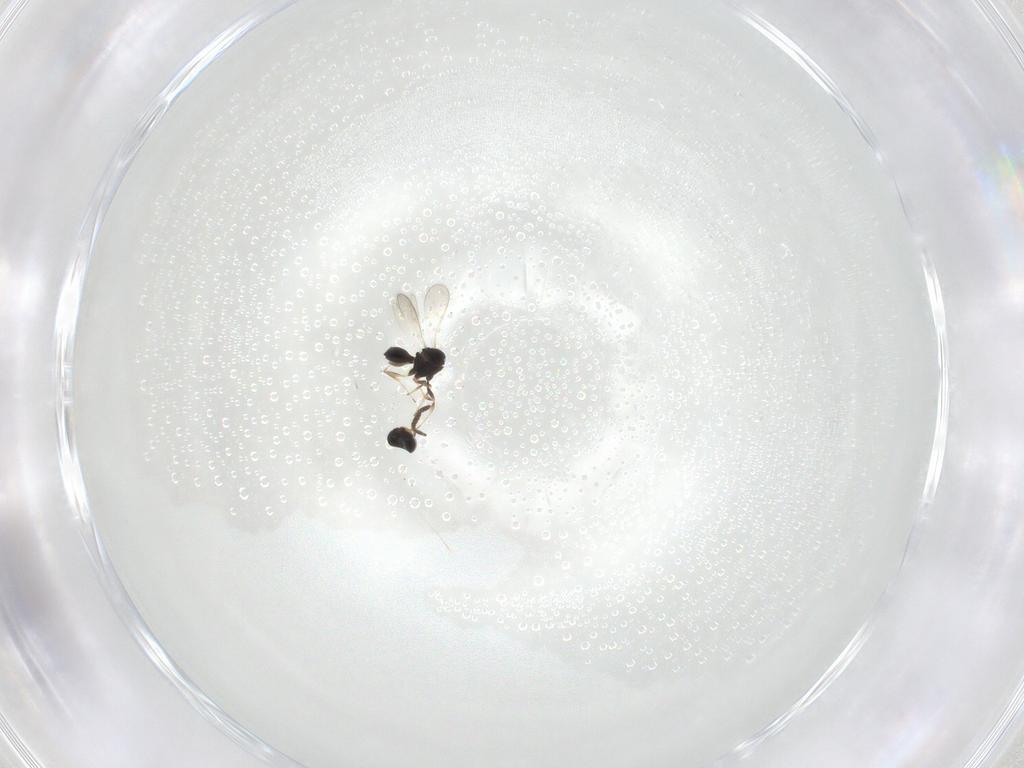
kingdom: Animalia
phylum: Arthropoda
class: Insecta
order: Hymenoptera
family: Scelionidae
